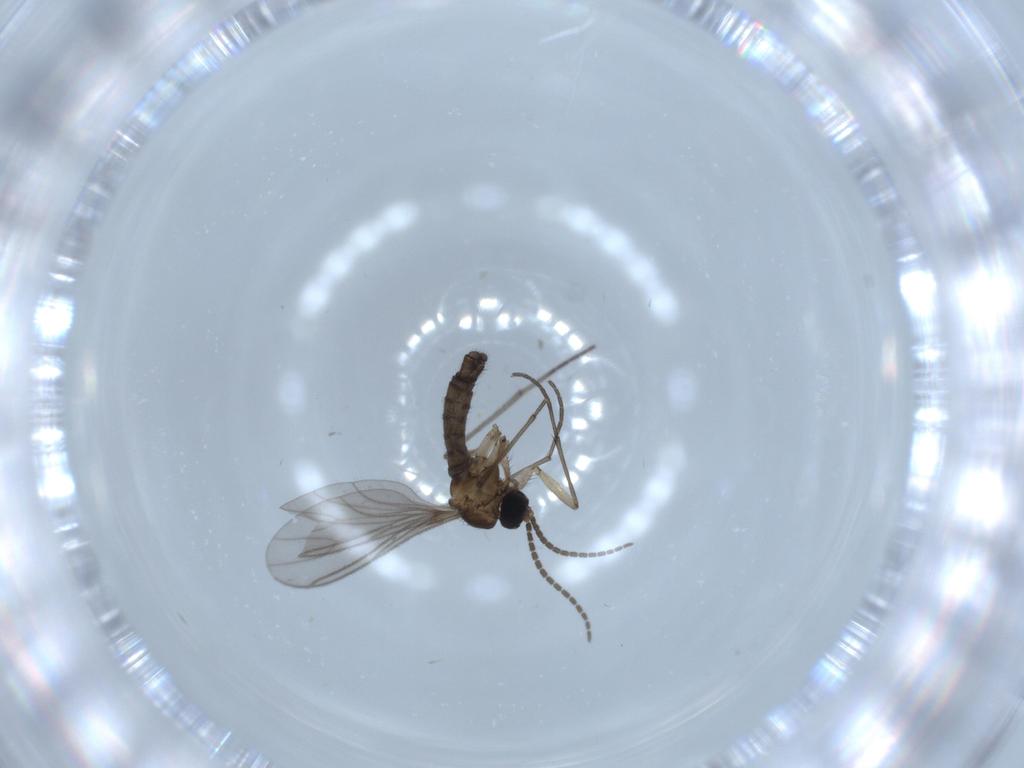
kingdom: Animalia
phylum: Arthropoda
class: Insecta
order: Diptera
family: Sciaridae
